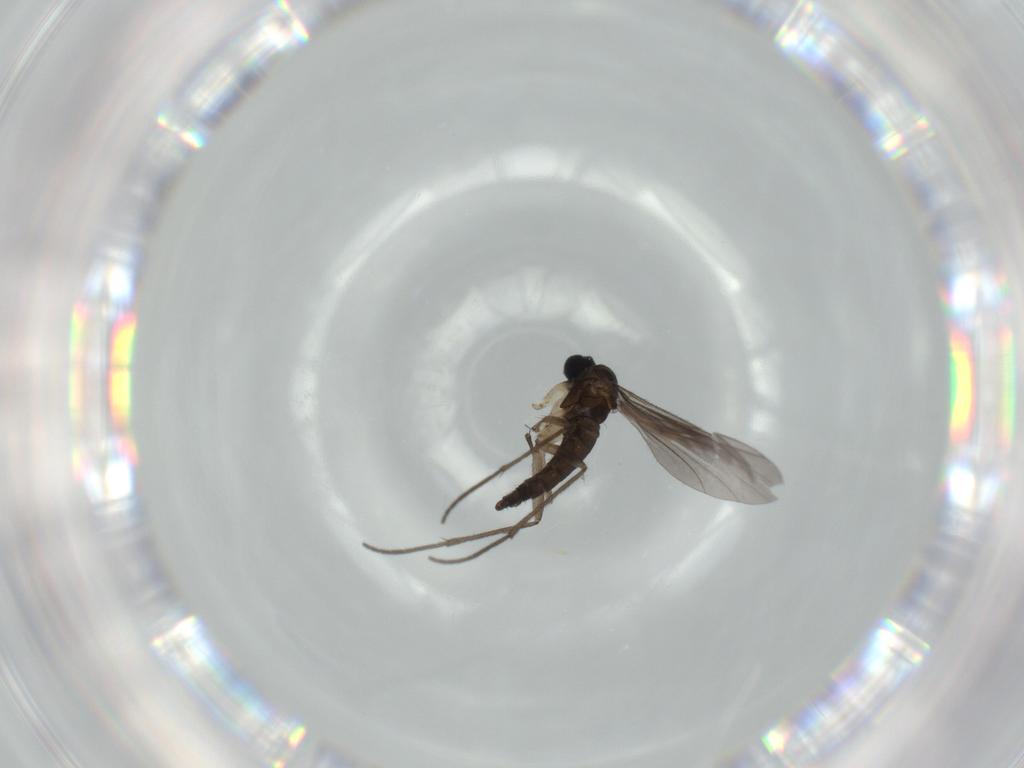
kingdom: Animalia
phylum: Arthropoda
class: Insecta
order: Diptera
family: Sciaridae
